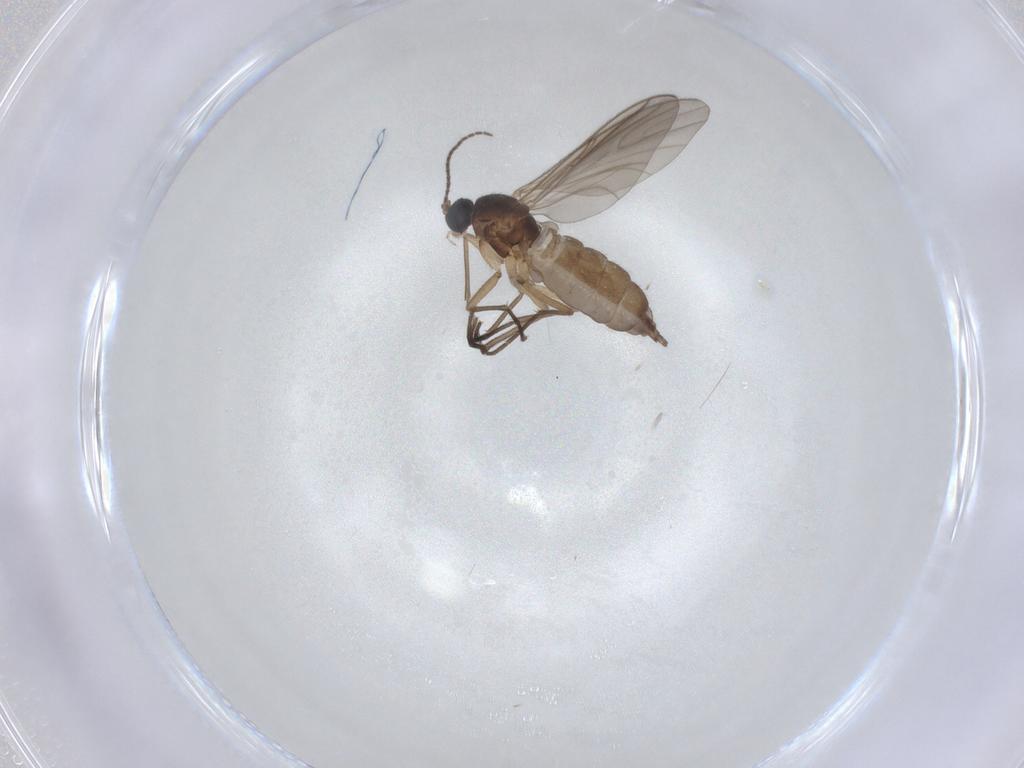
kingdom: Animalia
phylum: Arthropoda
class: Insecta
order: Diptera
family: Sciaridae
